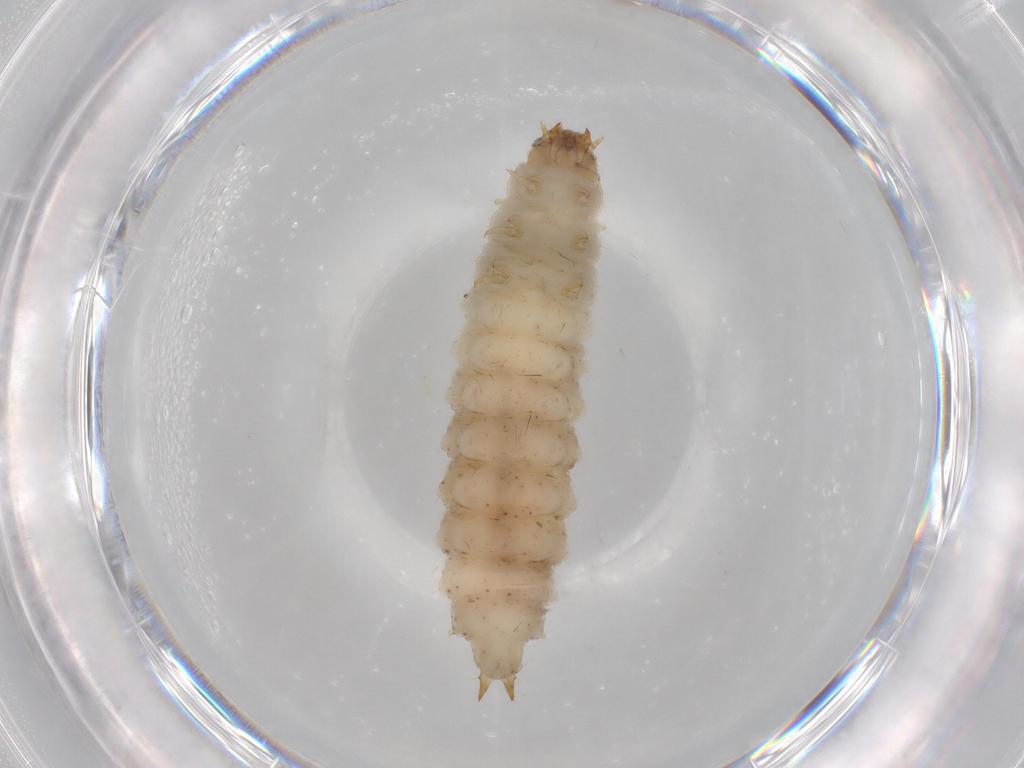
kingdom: Animalia
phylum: Arthropoda
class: Insecta
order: Coleoptera
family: Nitidulidae
